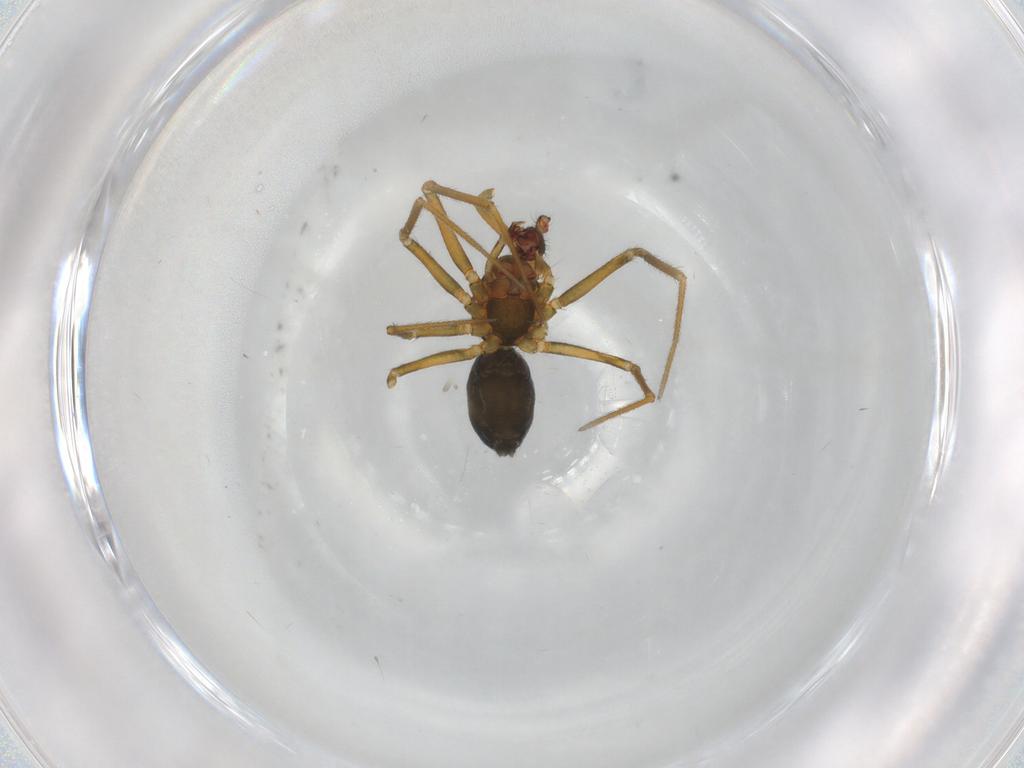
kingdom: Animalia
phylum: Arthropoda
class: Arachnida
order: Araneae
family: Linyphiidae
